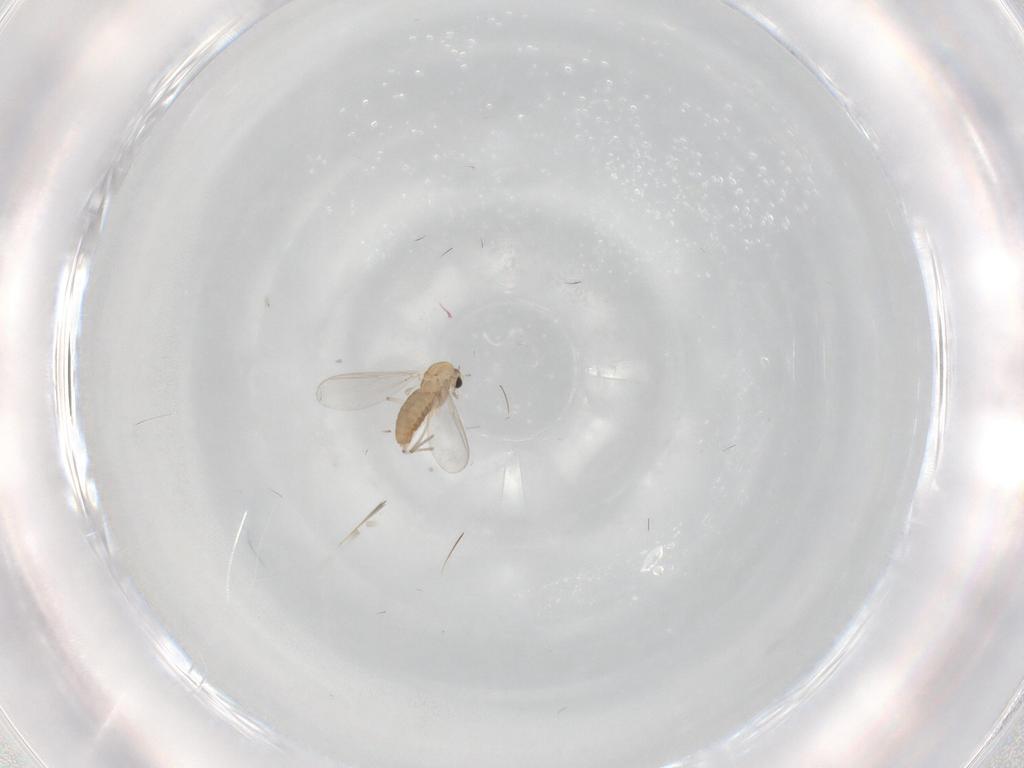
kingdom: Animalia
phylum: Arthropoda
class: Insecta
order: Diptera
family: Chironomidae
